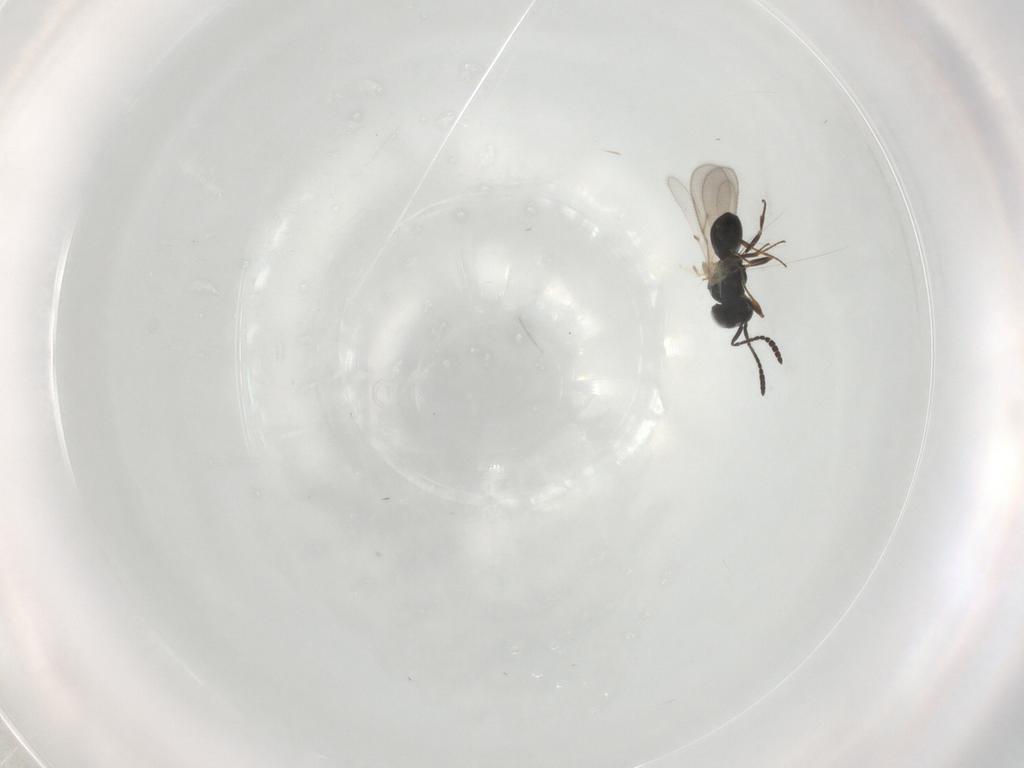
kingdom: Animalia
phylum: Arthropoda
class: Insecta
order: Hymenoptera
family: Scelionidae
